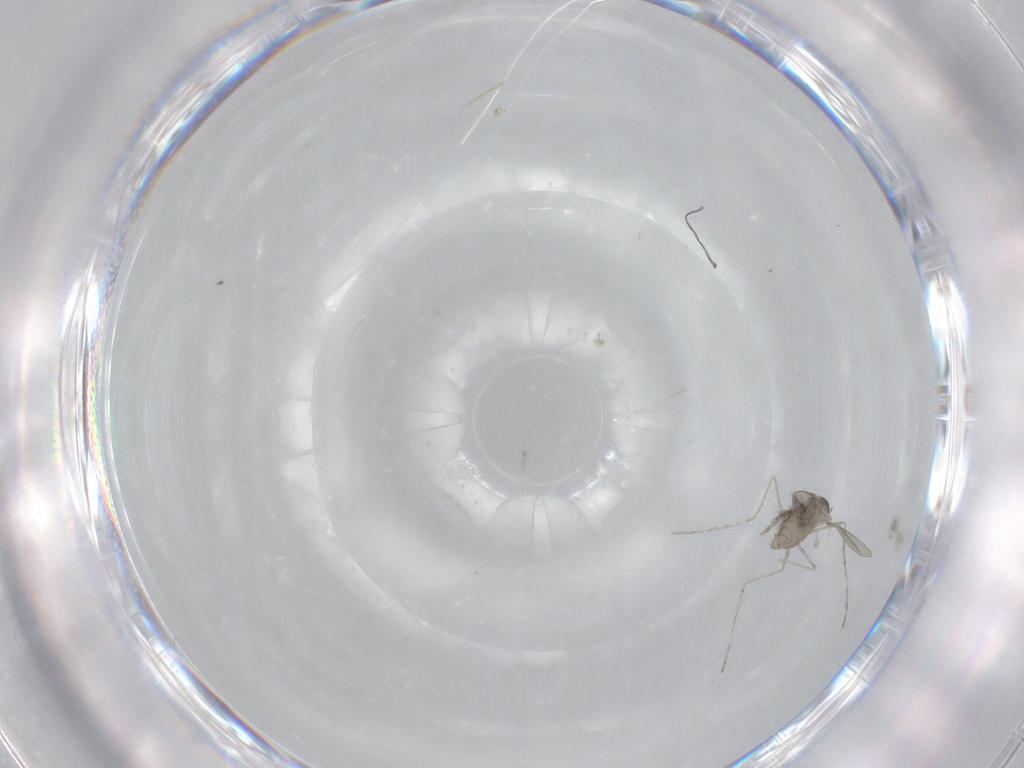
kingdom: Animalia
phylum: Arthropoda
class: Insecta
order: Diptera
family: Cecidomyiidae
